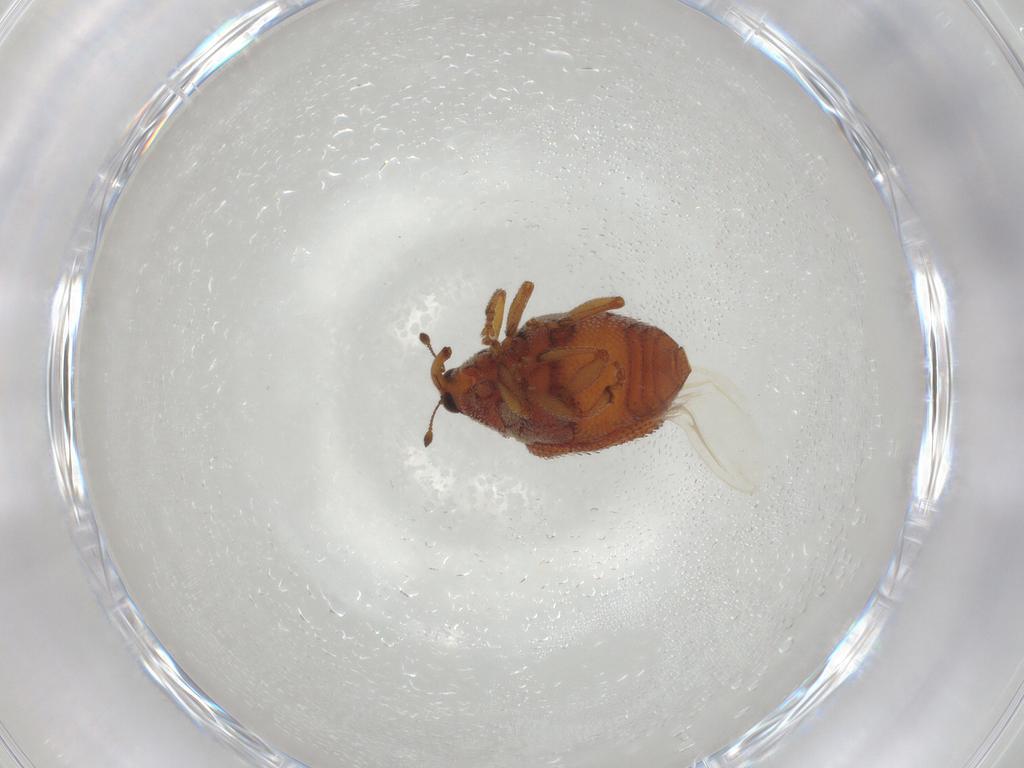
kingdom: Animalia
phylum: Arthropoda
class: Insecta
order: Coleoptera
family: Curculionidae
